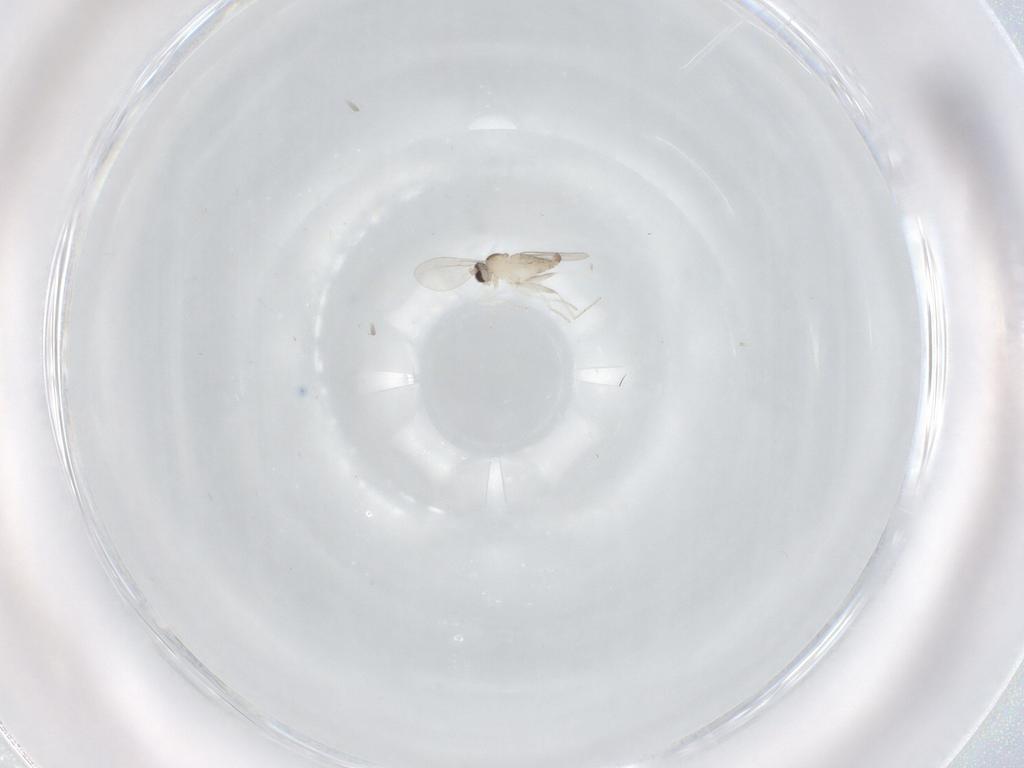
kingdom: Animalia
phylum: Arthropoda
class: Insecta
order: Diptera
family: Cecidomyiidae
